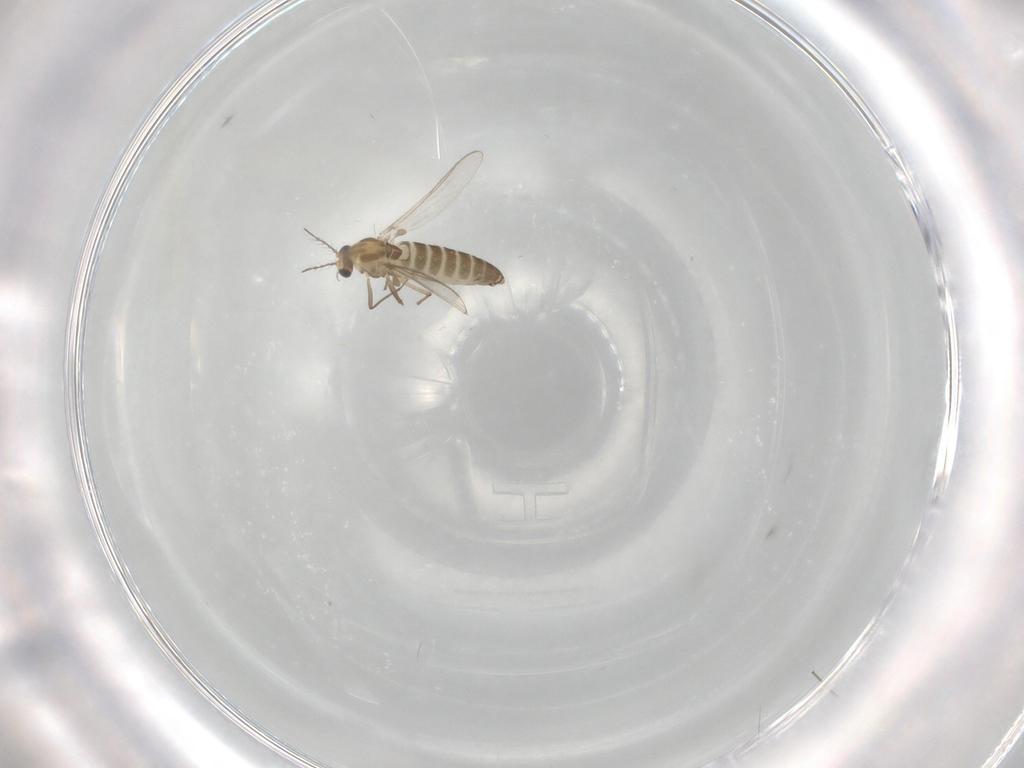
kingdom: Animalia
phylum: Arthropoda
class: Insecta
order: Diptera
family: Chironomidae
